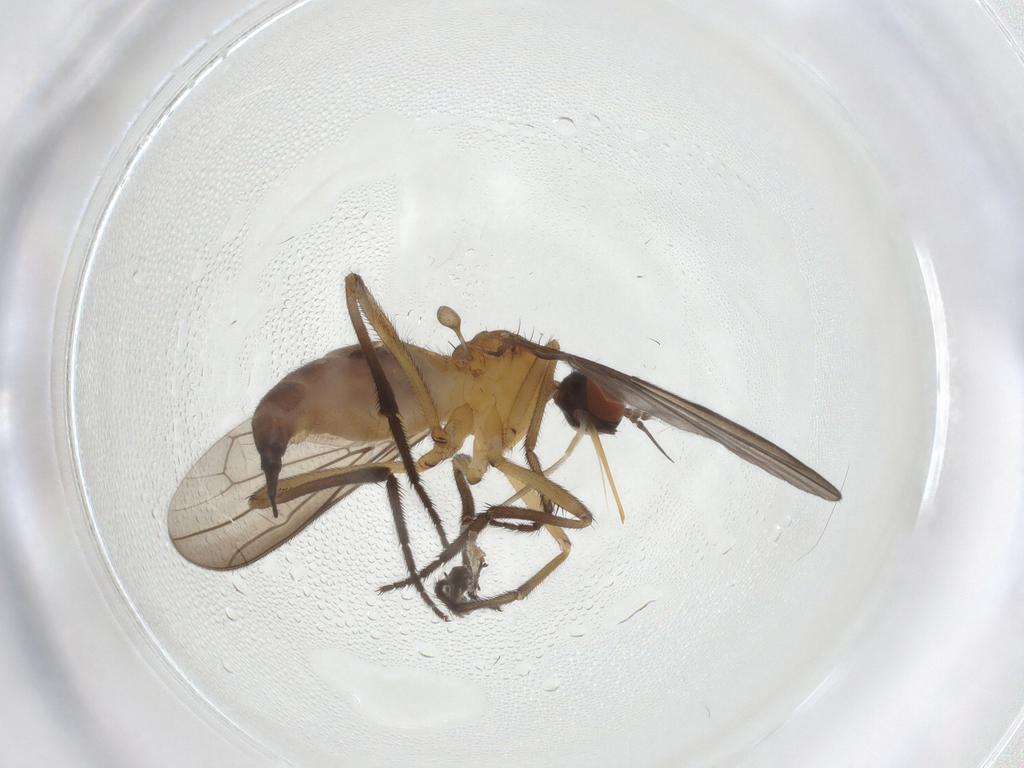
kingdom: Animalia
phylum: Arthropoda
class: Insecta
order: Diptera
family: Empididae
